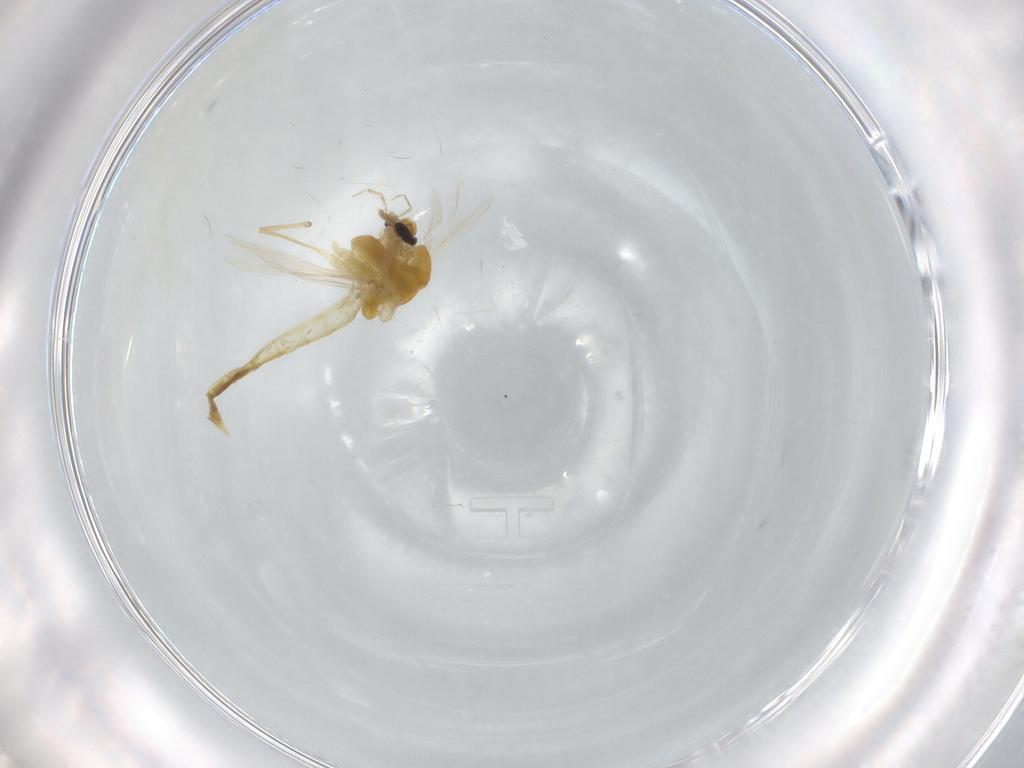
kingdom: Animalia
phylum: Arthropoda
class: Insecta
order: Diptera
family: Chironomidae
